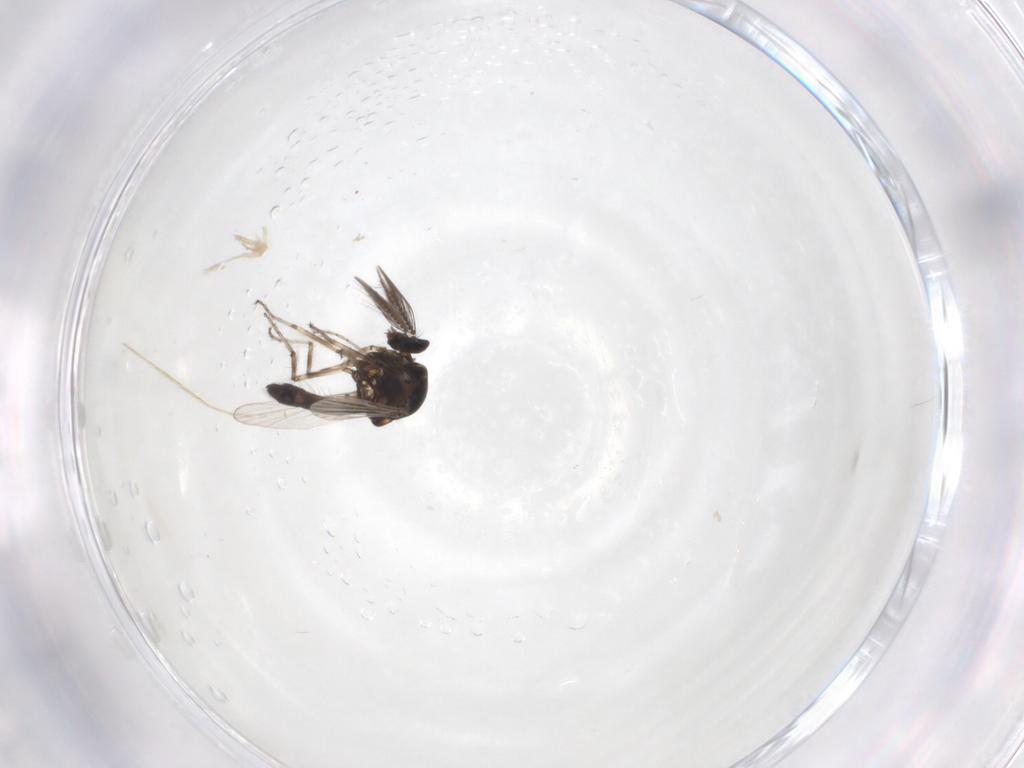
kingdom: Animalia
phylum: Arthropoda
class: Insecta
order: Diptera
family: Ceratopogonidae
